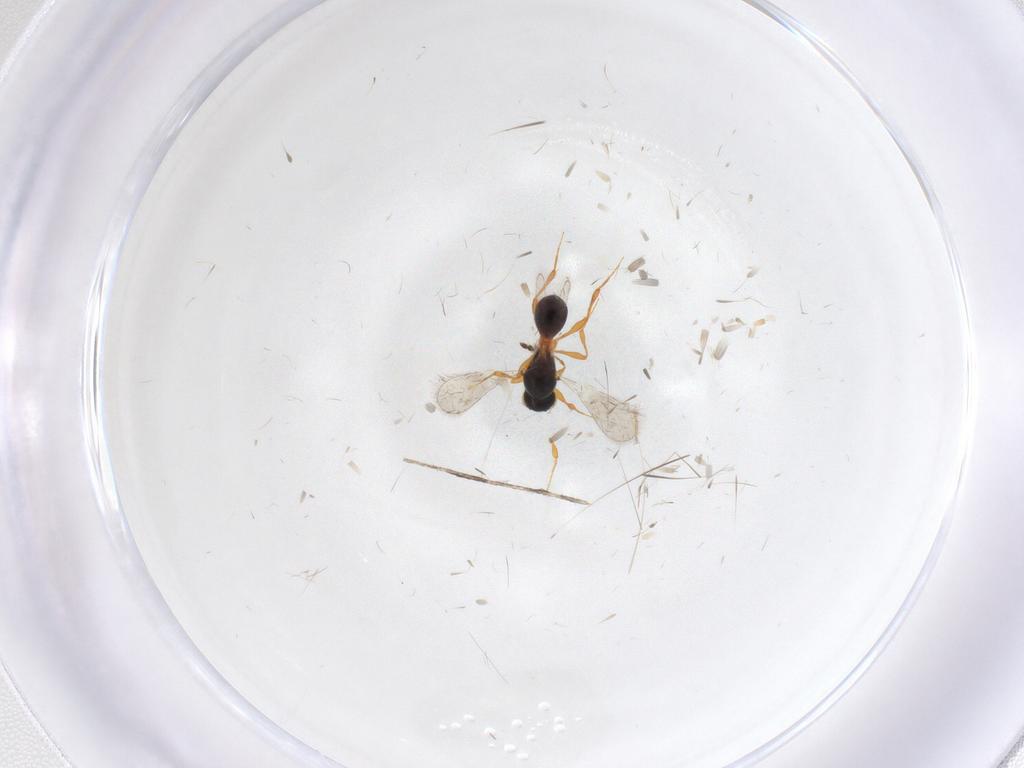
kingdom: Animalia
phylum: Arthropoda
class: Insecta
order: Hymenoptera
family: Platygastridae
